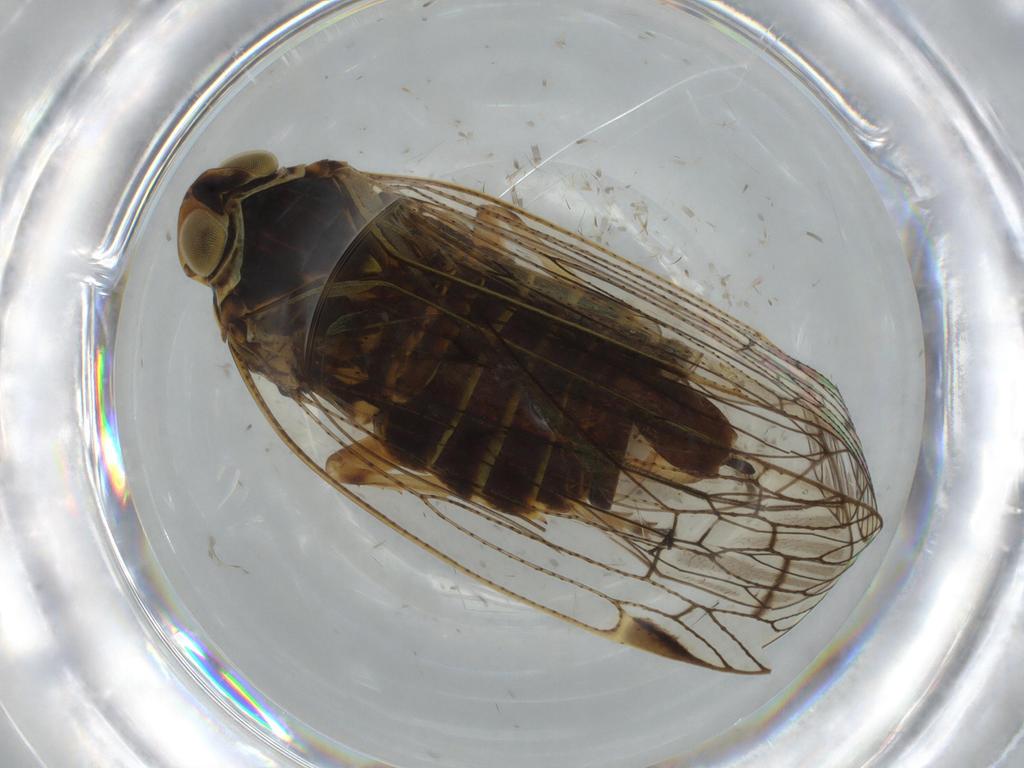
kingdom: Animalia
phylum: Arthropoda
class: Insecta
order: Hemiptera
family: Cixiidae
